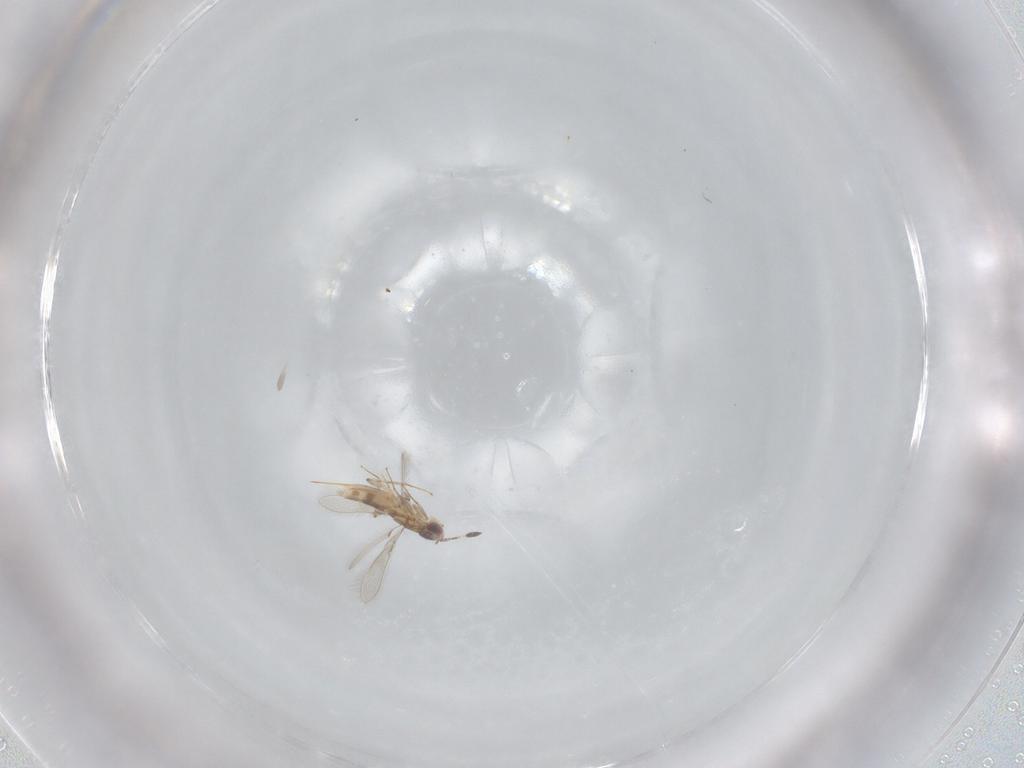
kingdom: Animalia
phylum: Arthropoda
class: Insecta
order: Hymenoptera
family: Mymaridae
